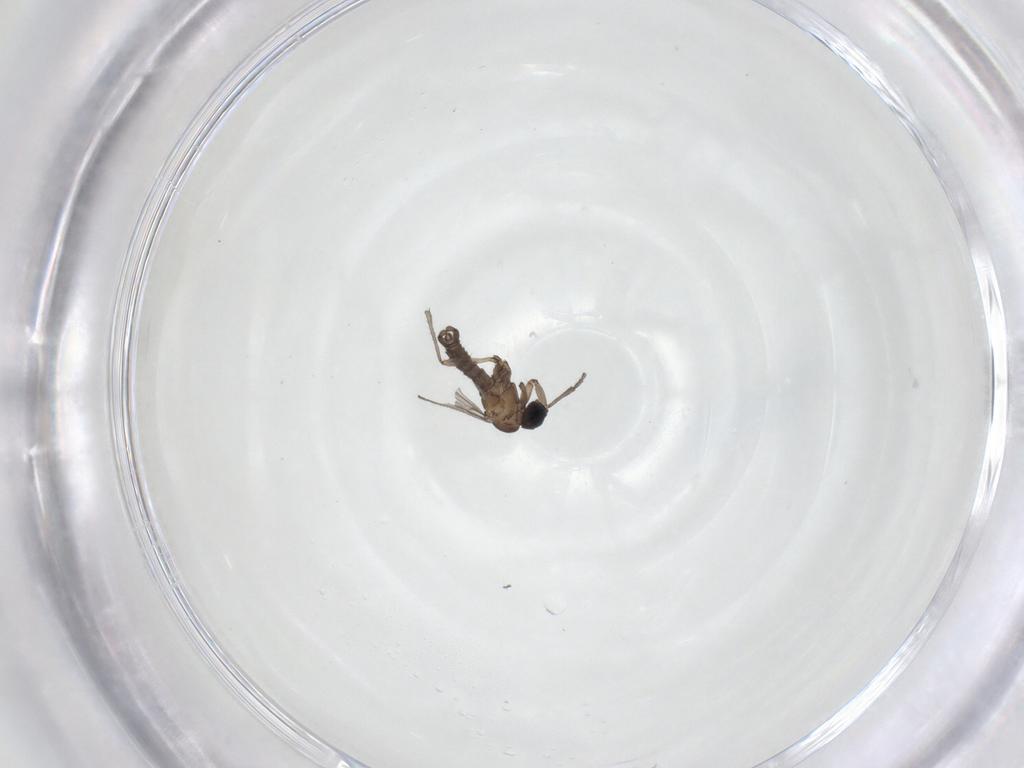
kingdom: Animalia
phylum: Arthropoda
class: Insecta
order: Diptera
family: Sciaridae
